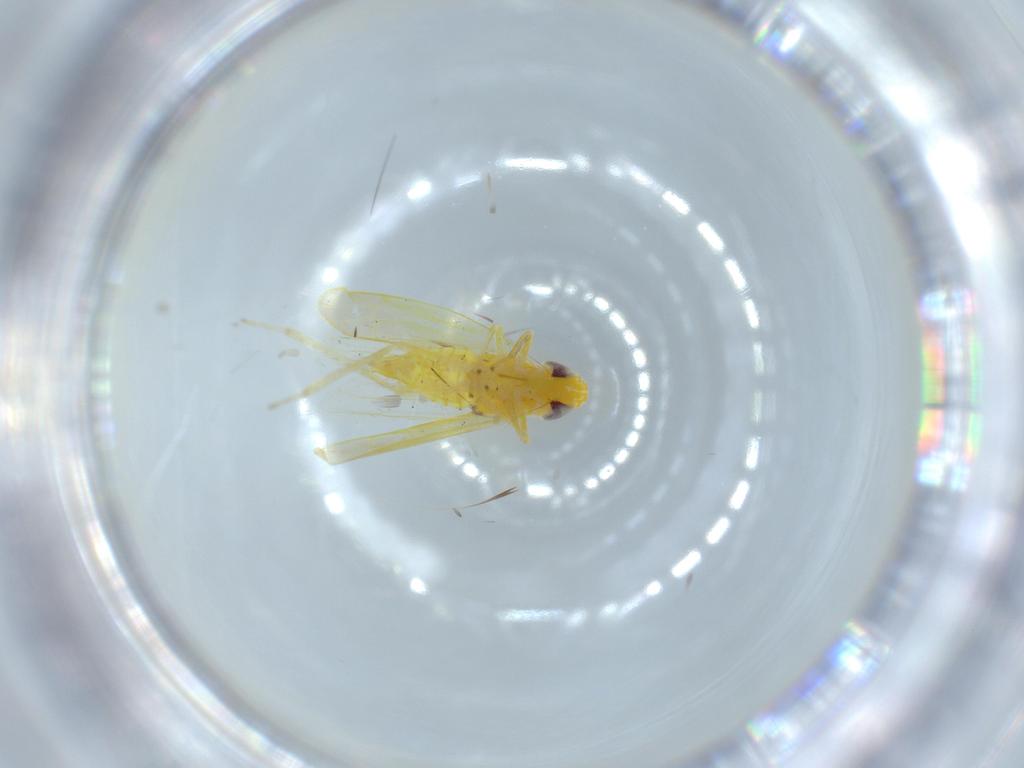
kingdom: Animalia
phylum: Arthropoda
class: Insecta
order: Hemiptera
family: Cicadellidae
